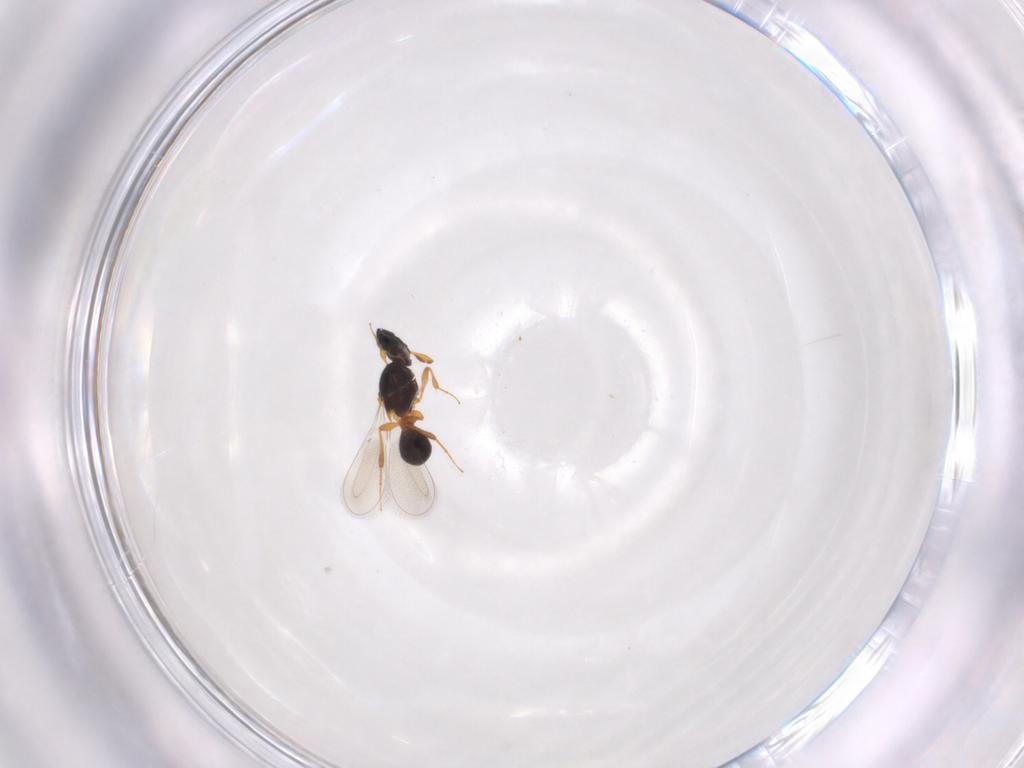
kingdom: Animalia
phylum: Arthropoda
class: Insecta
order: Hymenoptera
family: Platygastridae
